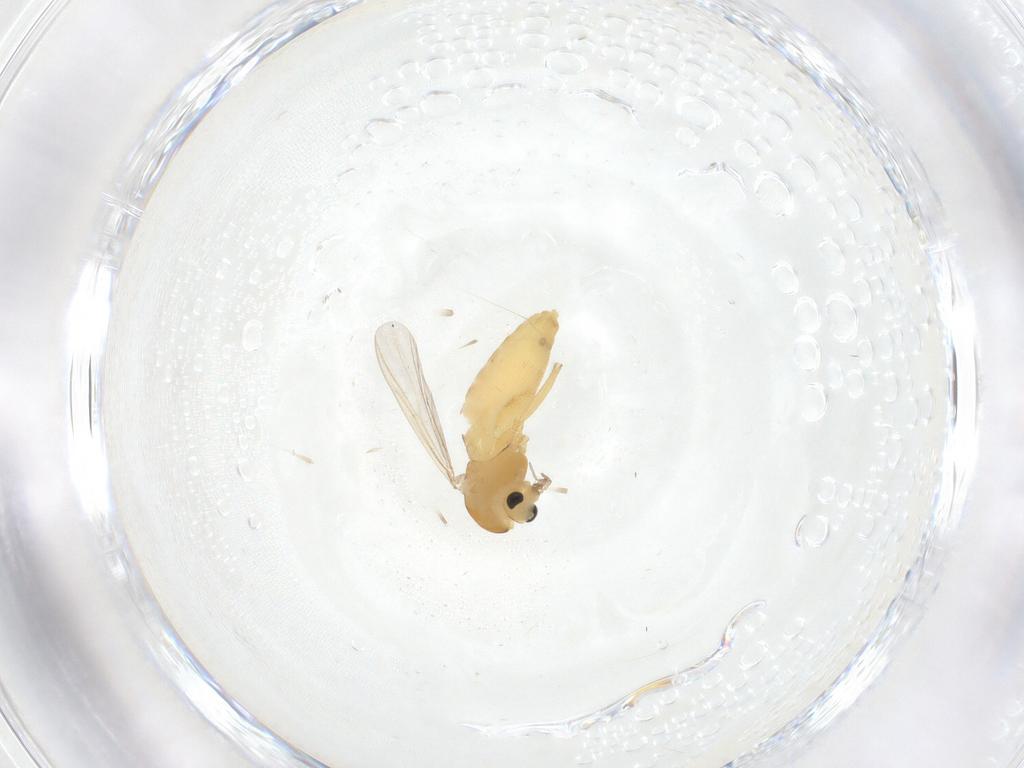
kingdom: Animalia
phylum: Arthropoda
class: Insecta
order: Diptera
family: Chironomidae
